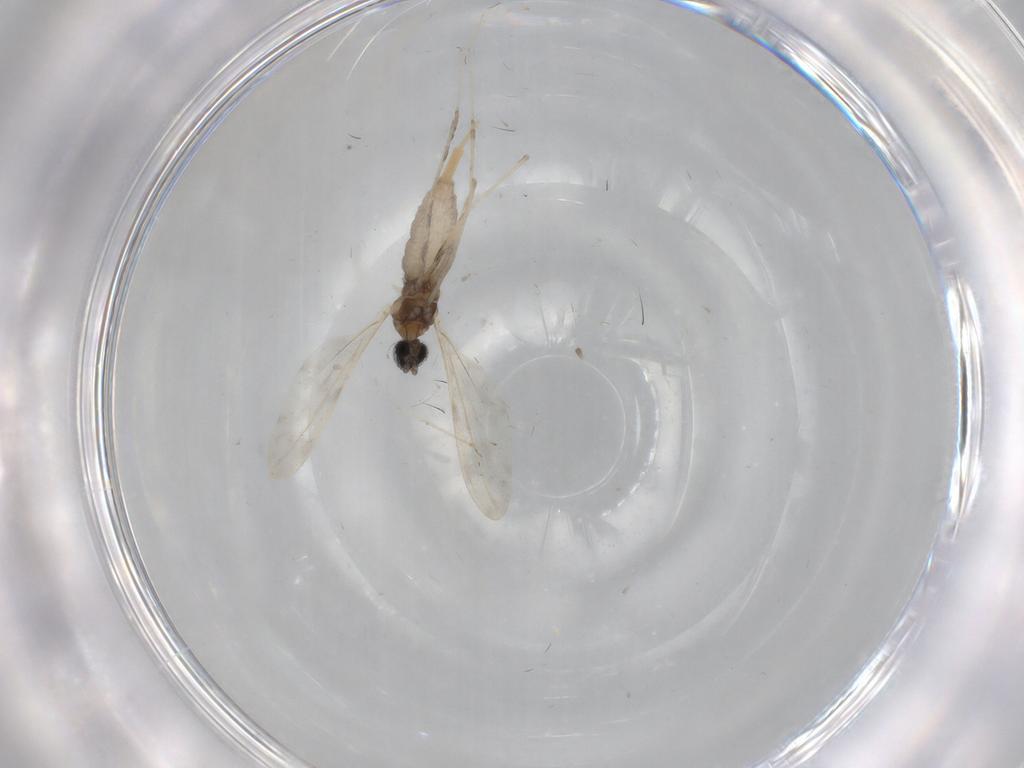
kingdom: Animalia
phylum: Arthropoda
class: Insecta
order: Diptera
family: Cecidomyiidae
